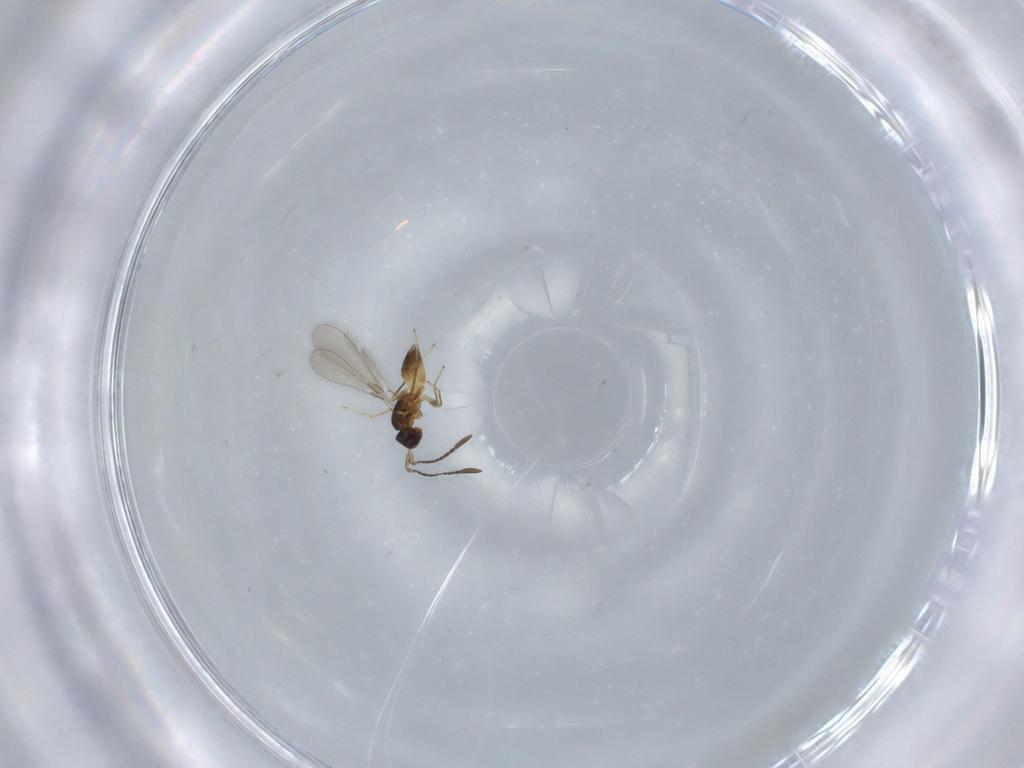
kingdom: Animalia
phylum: Arthropoda
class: Insecta
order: Hymenoptera
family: Mymaridae
